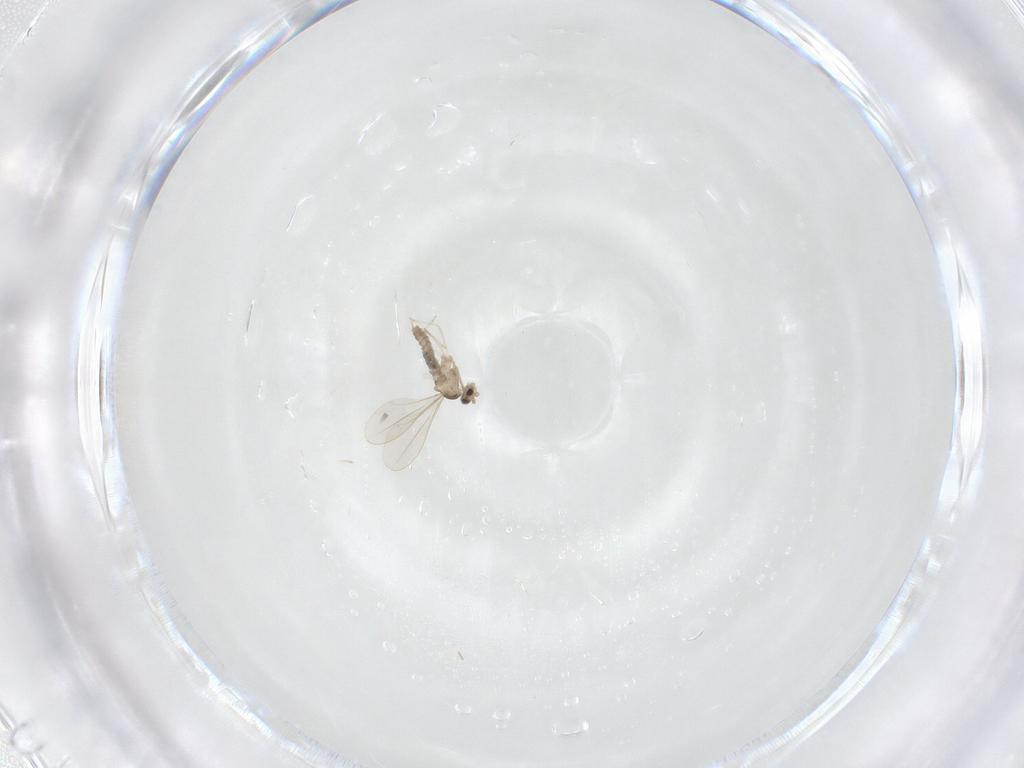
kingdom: Animalia
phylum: Arthropoda
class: Insecta
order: Diptera
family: Cecidomyiidae
